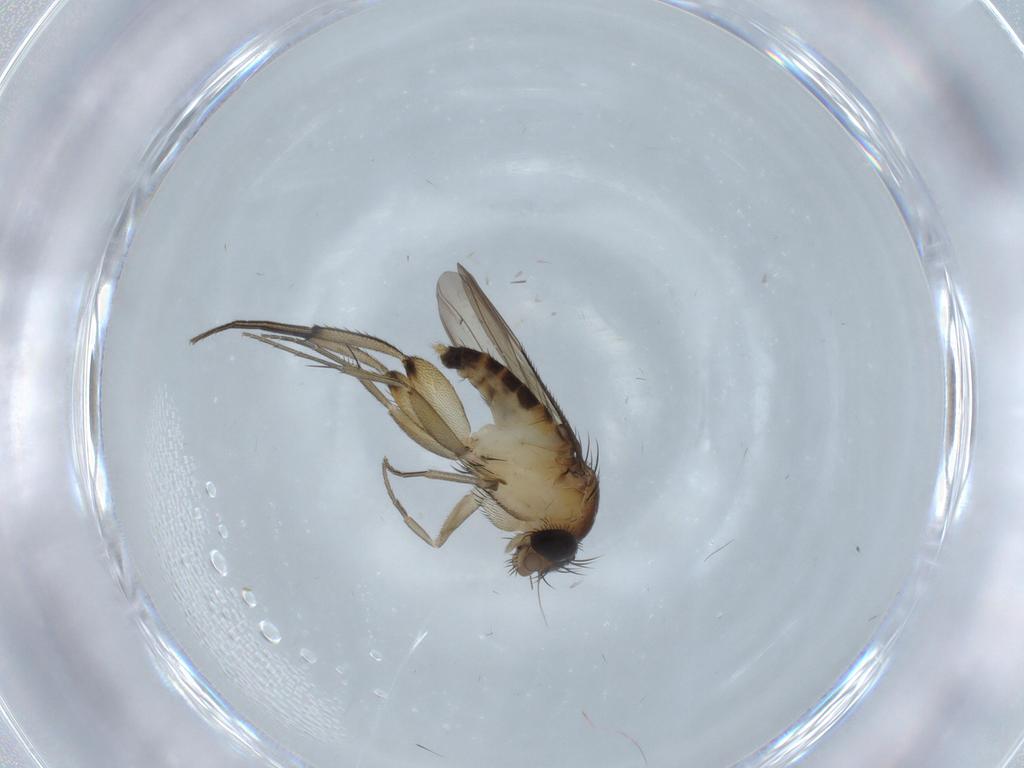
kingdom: Animalia
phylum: Arthropoda
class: Insecta
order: Diptera
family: Phoridae
